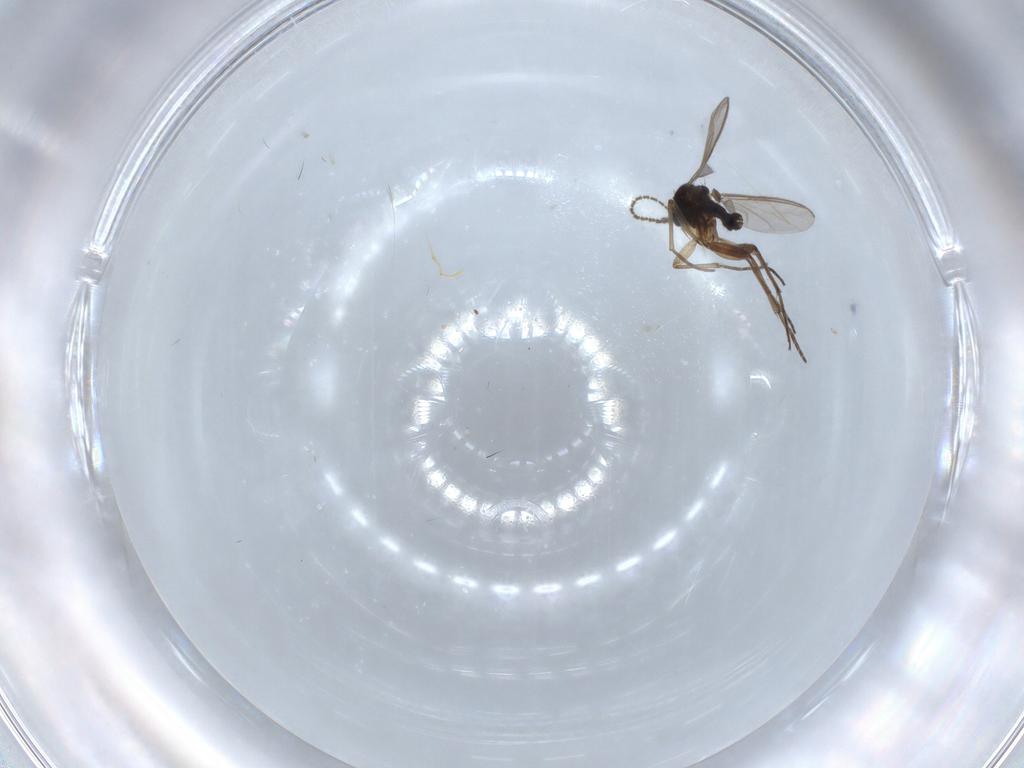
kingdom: Animalia
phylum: Arthropoda
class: Insecta
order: Diptera
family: Sciaridae
